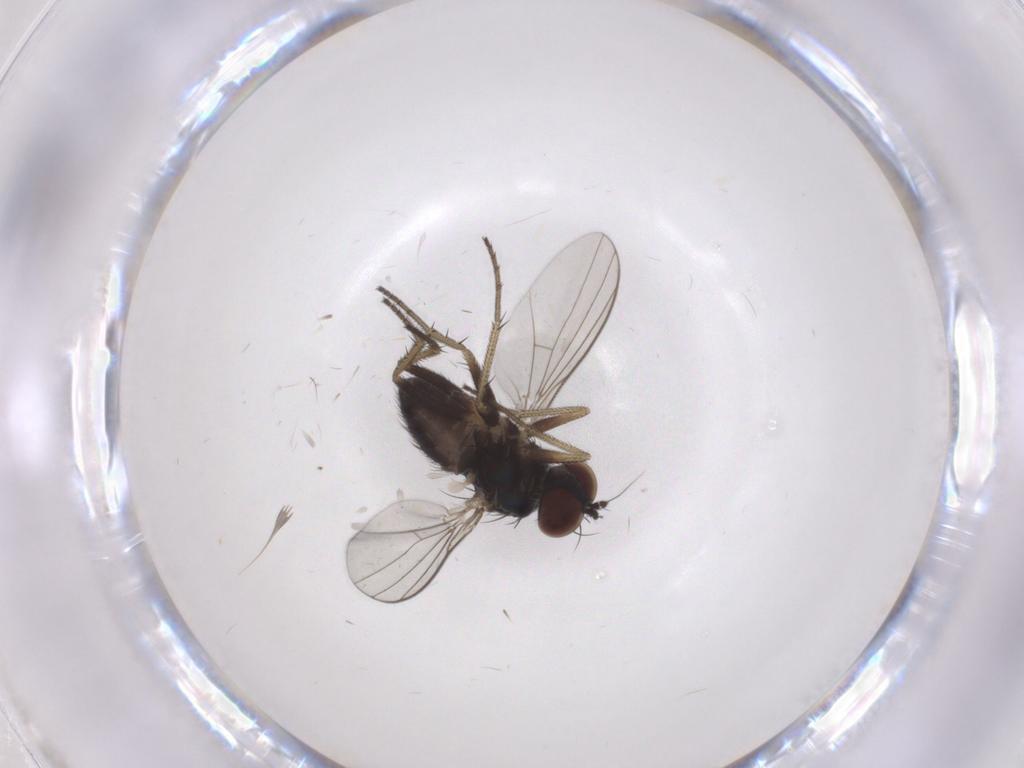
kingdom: Animalia
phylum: Arthropoda
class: Insecta
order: Diptera
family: Dolichopodidae
